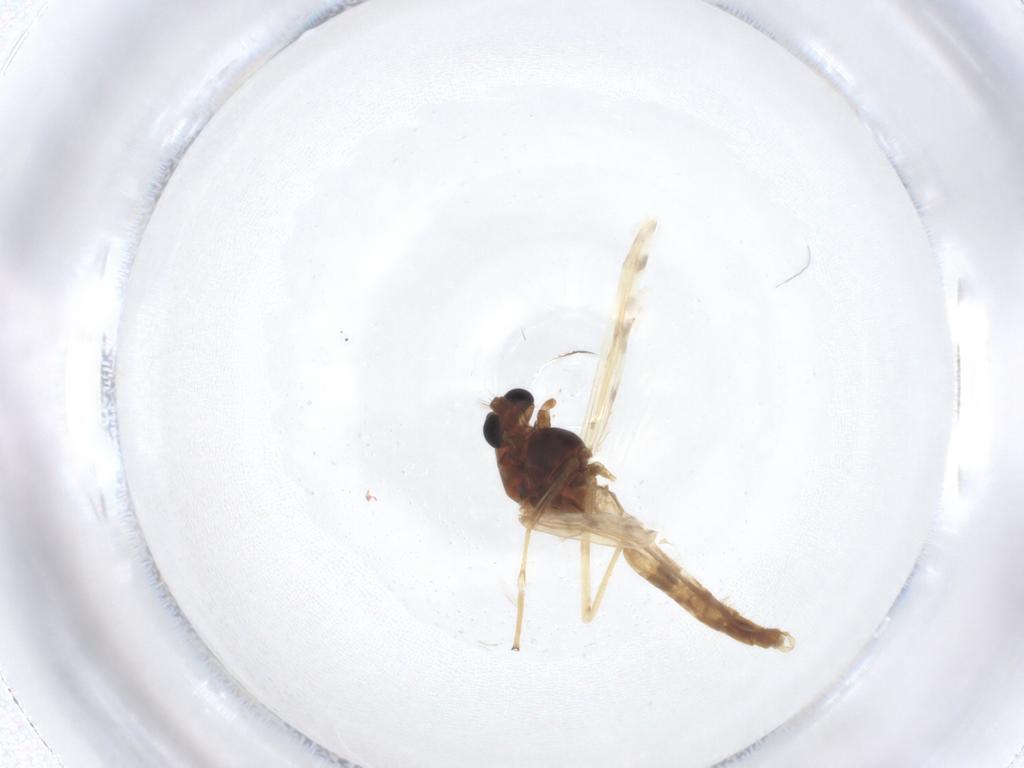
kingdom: Animalia
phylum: Arthropoda
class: Insecta
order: Diptera
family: Chironomidae
